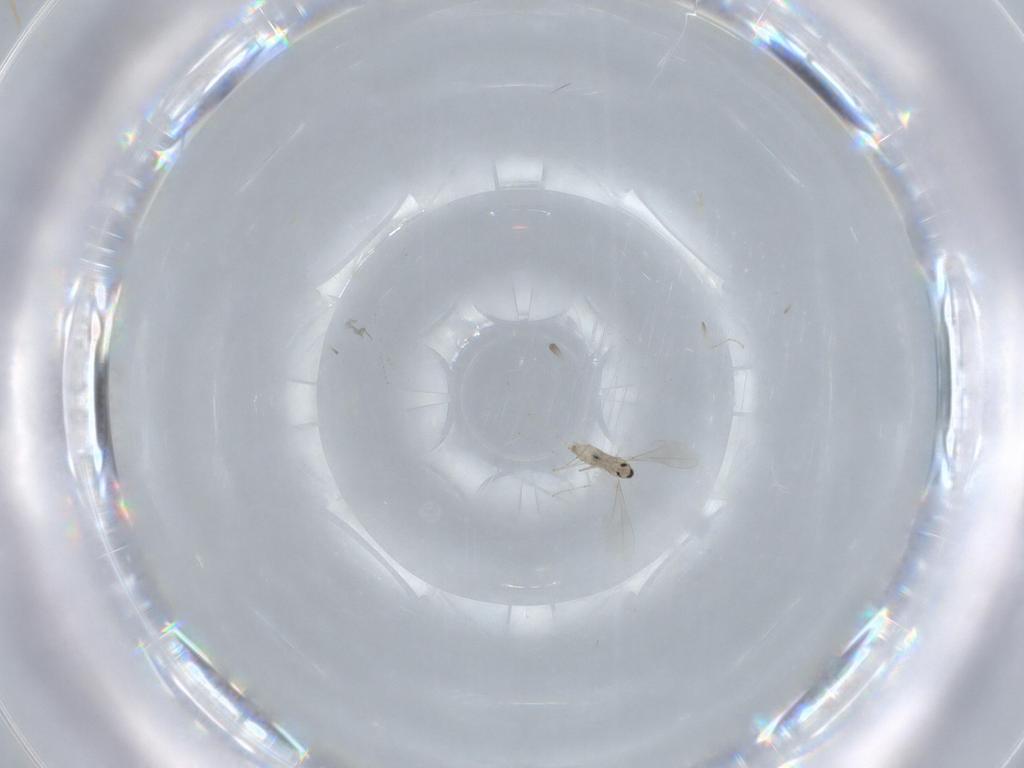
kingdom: Animalia
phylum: Arthropoda
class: Insecta
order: Diptera
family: Cecidomyiidae
